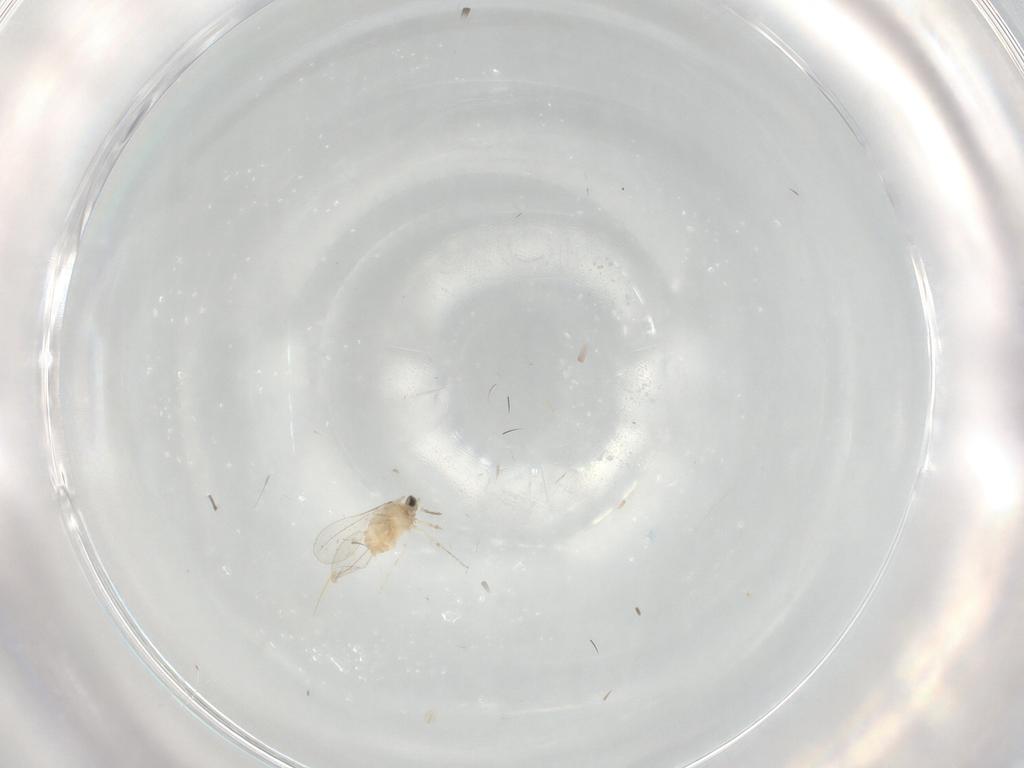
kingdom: Animalia
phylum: Arthropoda
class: Insecta
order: Diptera
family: Cecidomyiidae
